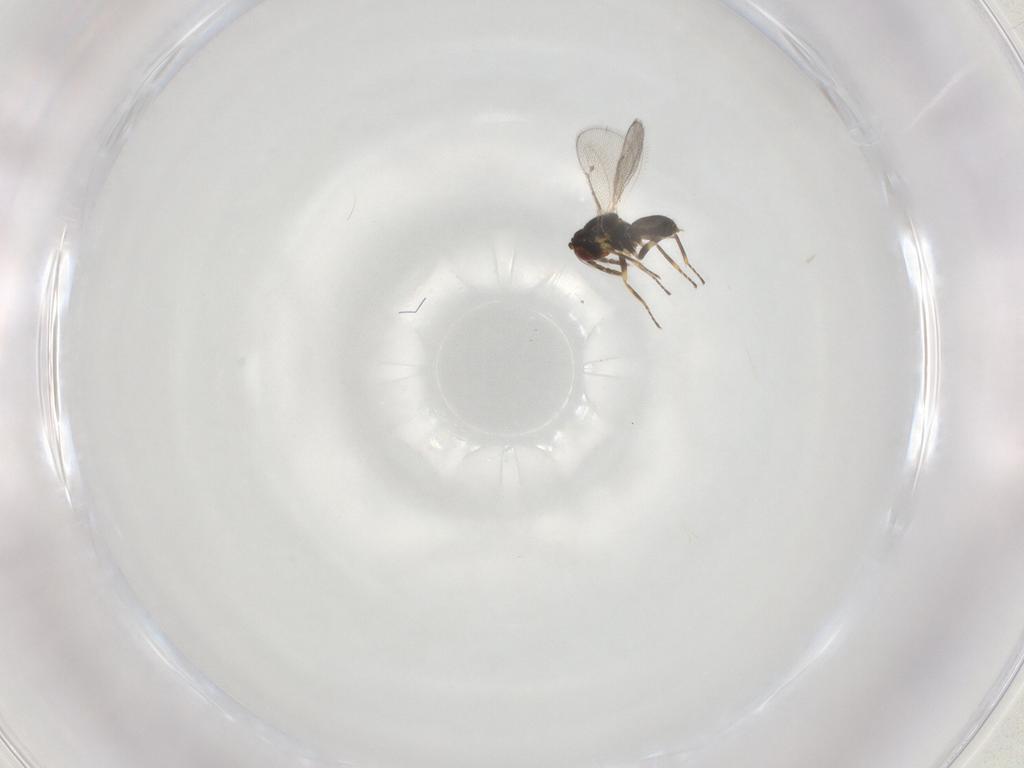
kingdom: Animalia
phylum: Arthropoda
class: Insecta
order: Hymenoptera
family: Eulophidae
